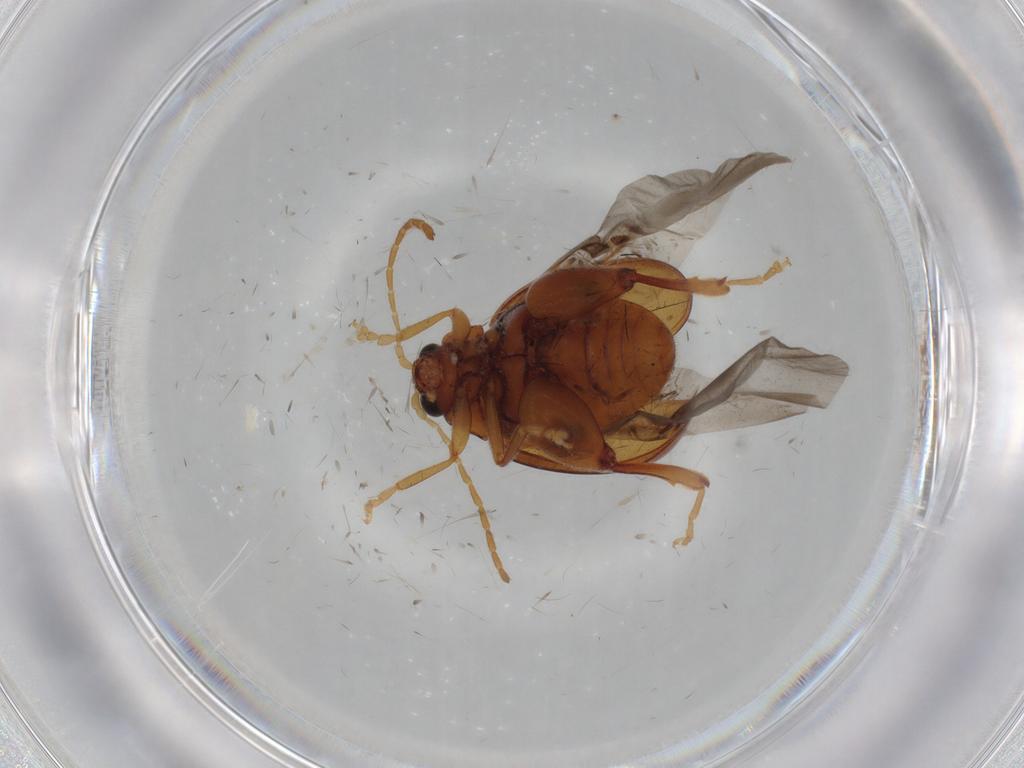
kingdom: Animalia
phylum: Arthropoda
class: Insecta
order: Coleoptera
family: Chrysomelidae
